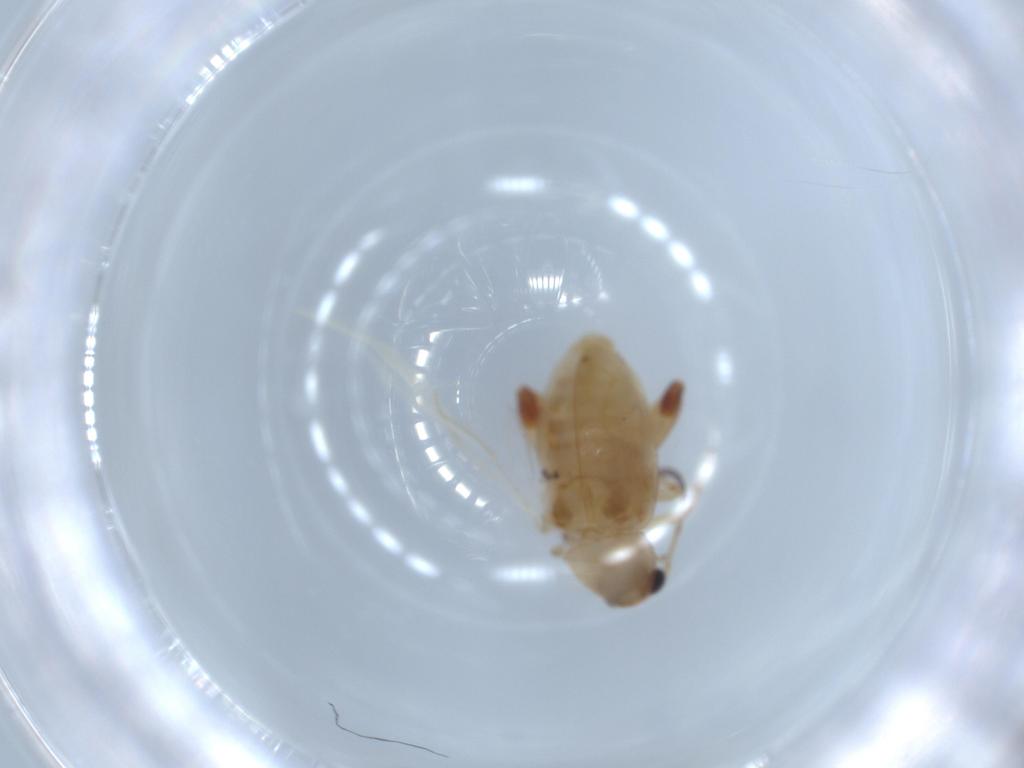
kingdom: Animalia
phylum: Arthropoda
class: Insecta
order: Coleoptera
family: Chrysomelidae
